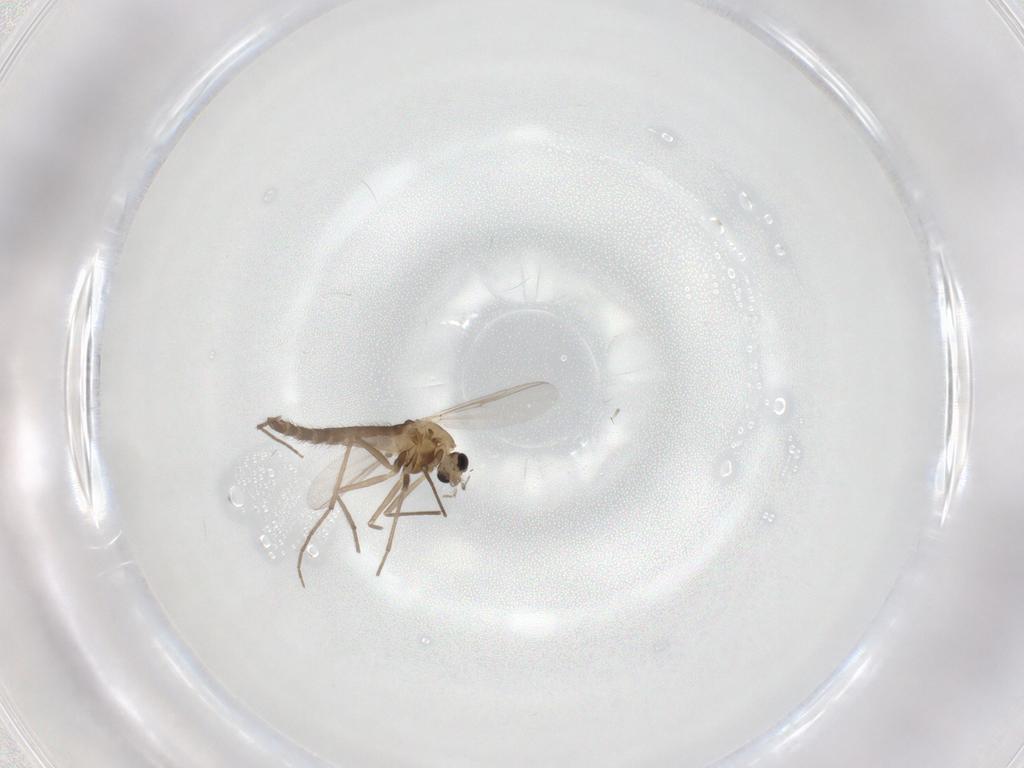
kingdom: Animalia
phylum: Arthropoda
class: Insecta
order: Diptera
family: Chironomidae
